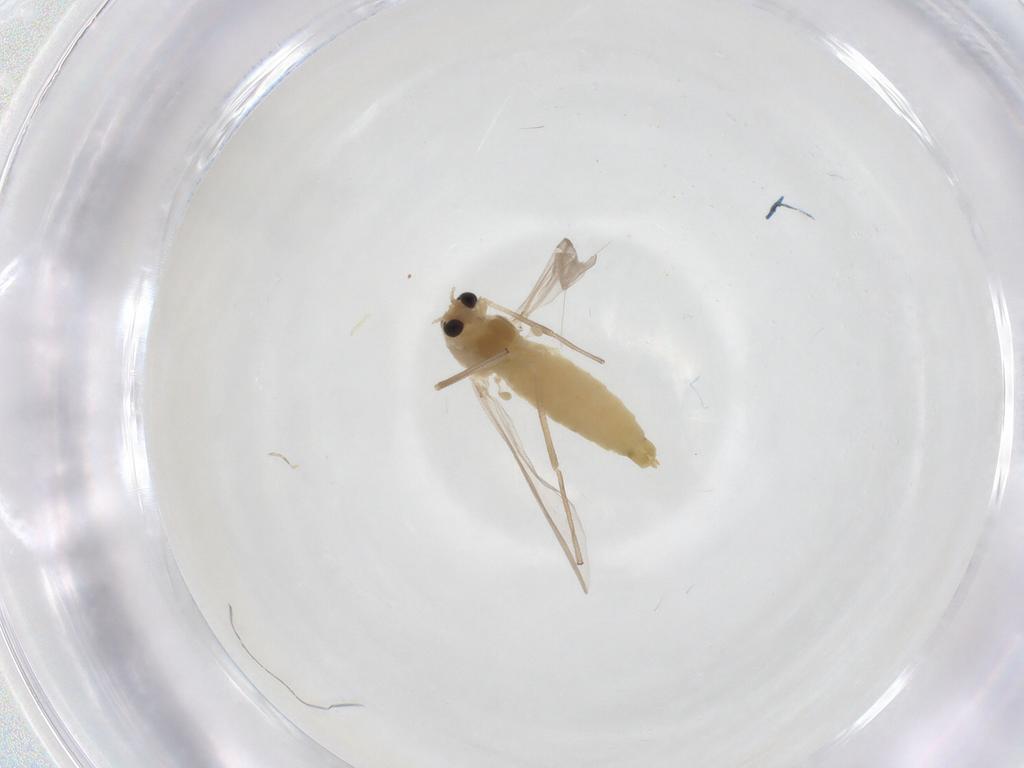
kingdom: Animalia
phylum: Arthropoda
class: Insecta
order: Diptera
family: Chironomidae
